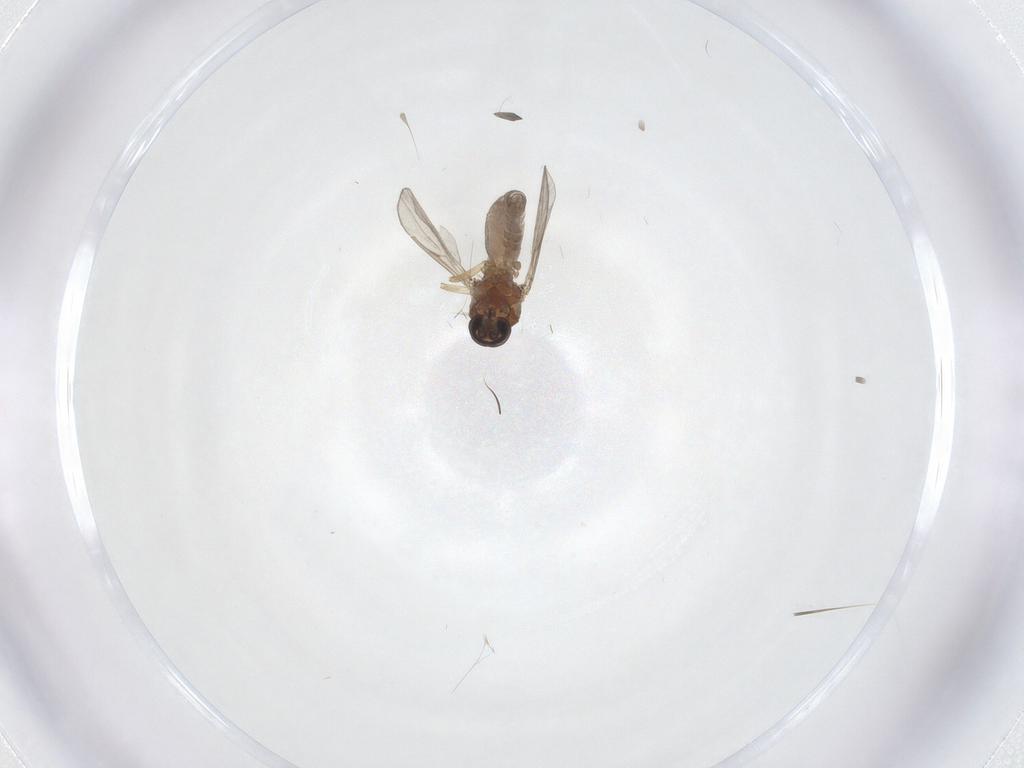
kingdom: Animalia
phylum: Arthropoda
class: Insecta
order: Diptera
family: Ceratopogonidae
